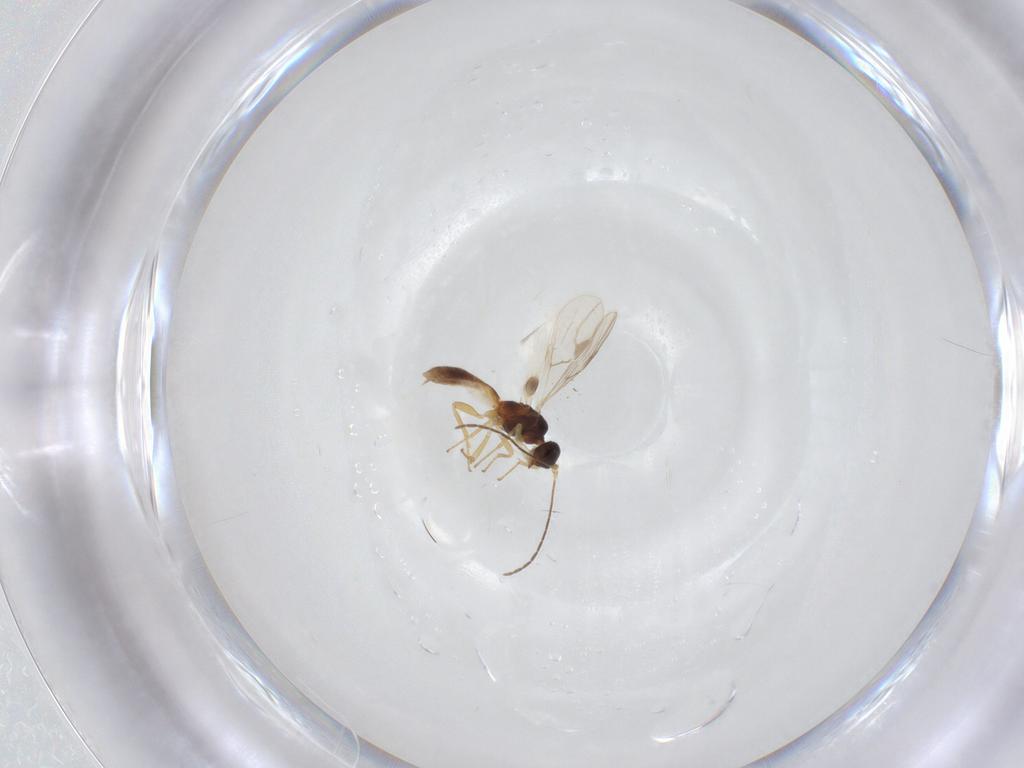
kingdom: Animalia
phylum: Arthropoda
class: Insecta
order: Hymenoptera
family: Braconidae
